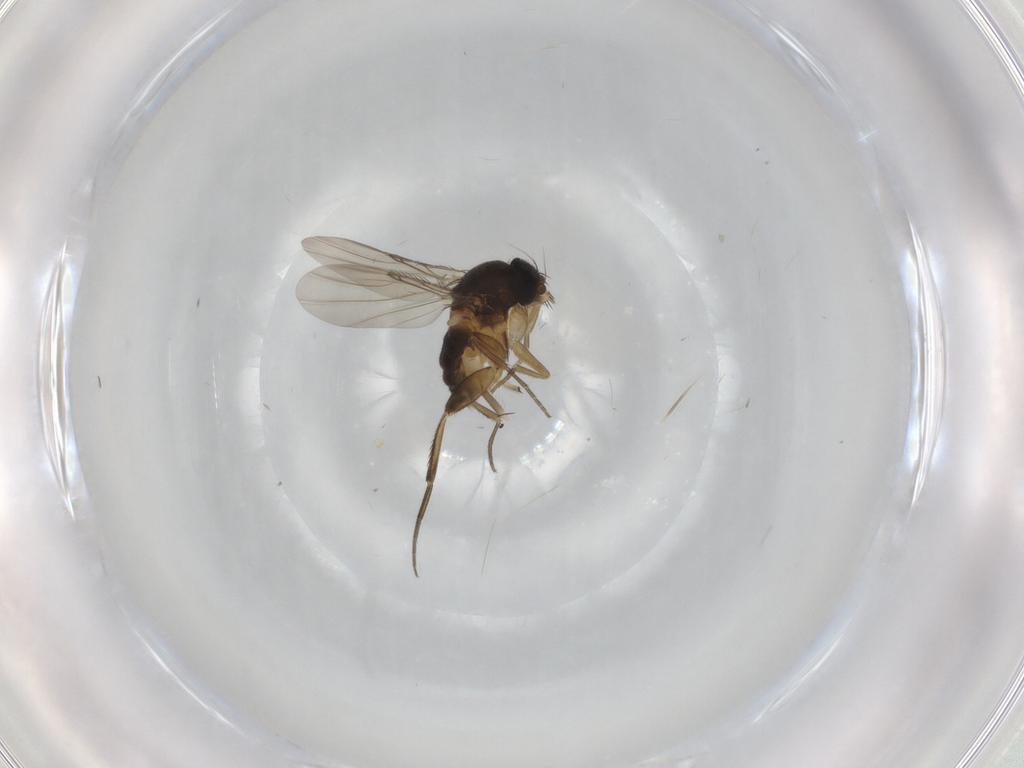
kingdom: Animalia
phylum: Arthropoda
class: Insecta
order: Diptera
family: Phoridae
